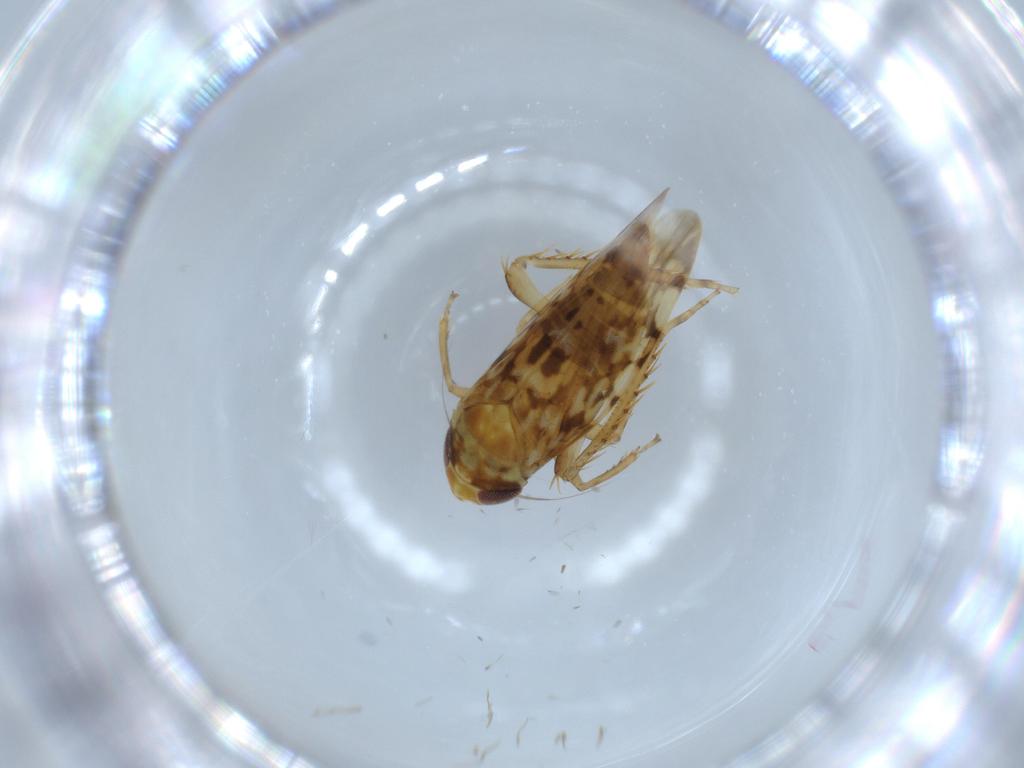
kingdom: Animalia
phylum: Arthropoda
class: Insecta
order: Hemiptera
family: Cicadellidae
